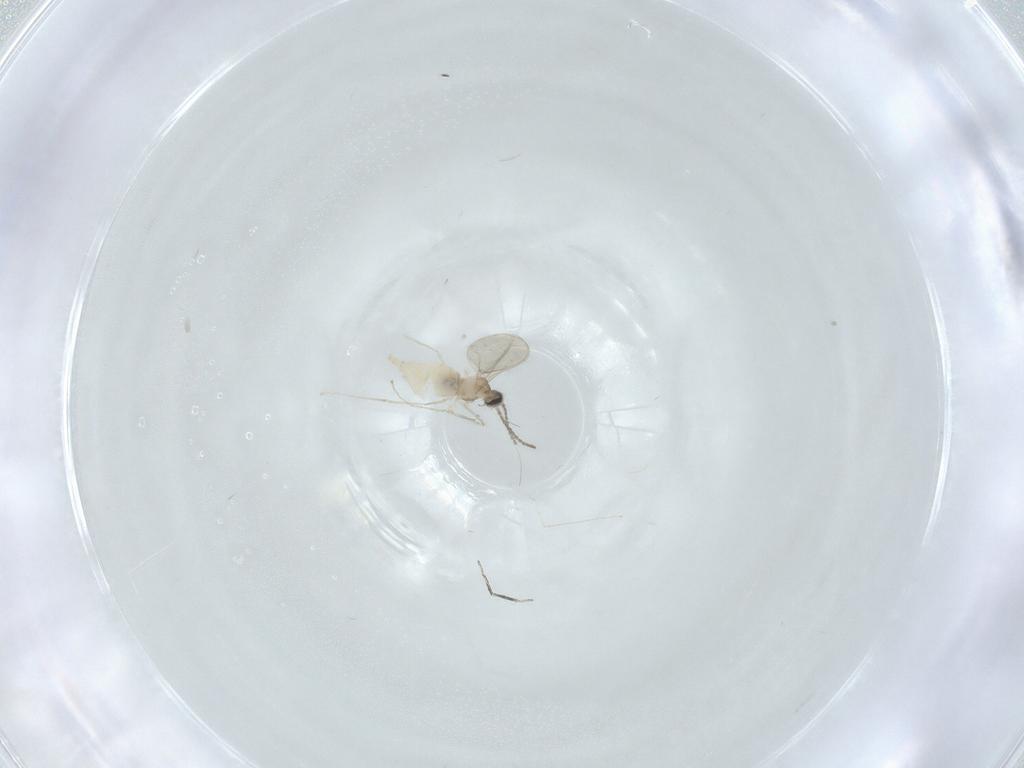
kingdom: Animalia
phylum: Arthropoda
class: Insecta
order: Diptera
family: Cecidomyiidae
